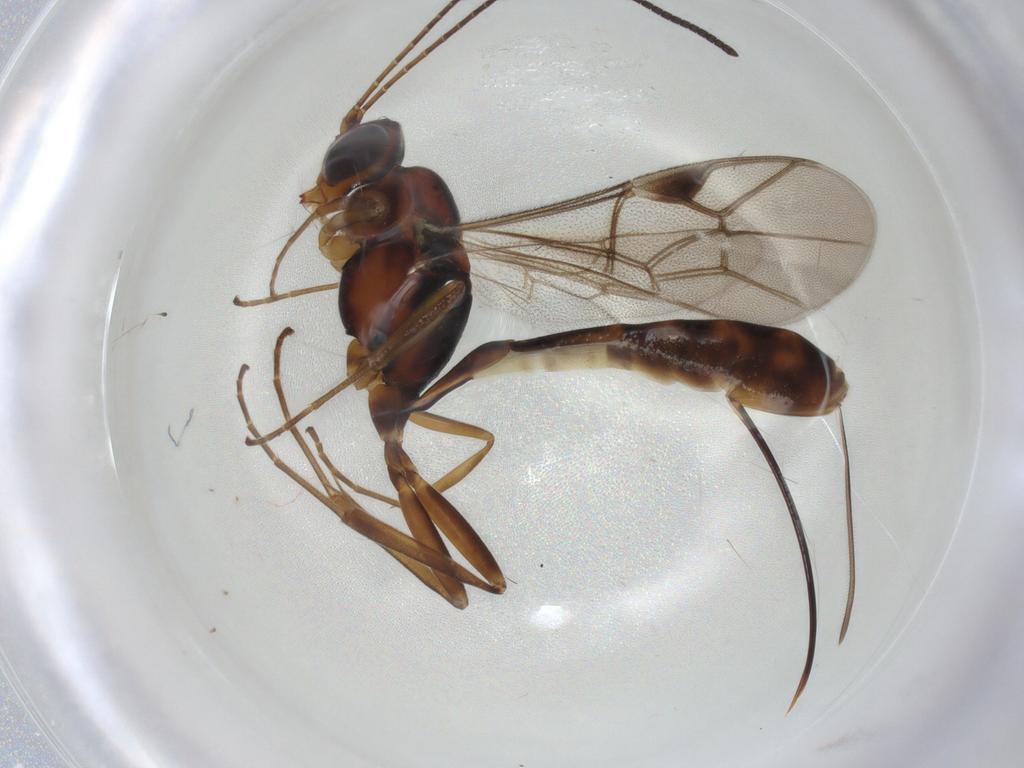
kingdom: Animalia
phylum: Arthropoda
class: Insecta
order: Hymenoptera
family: Ichneumonidae
